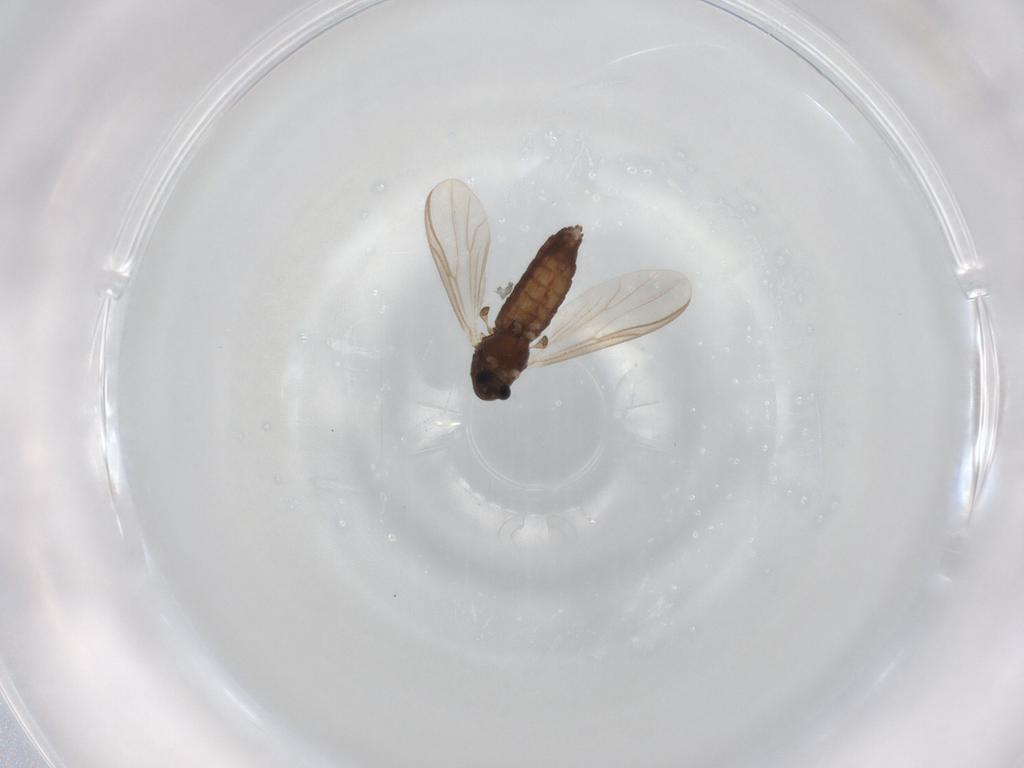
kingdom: Animalia
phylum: Arthropoda
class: Insecta
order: Diptera
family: Chironomidae
